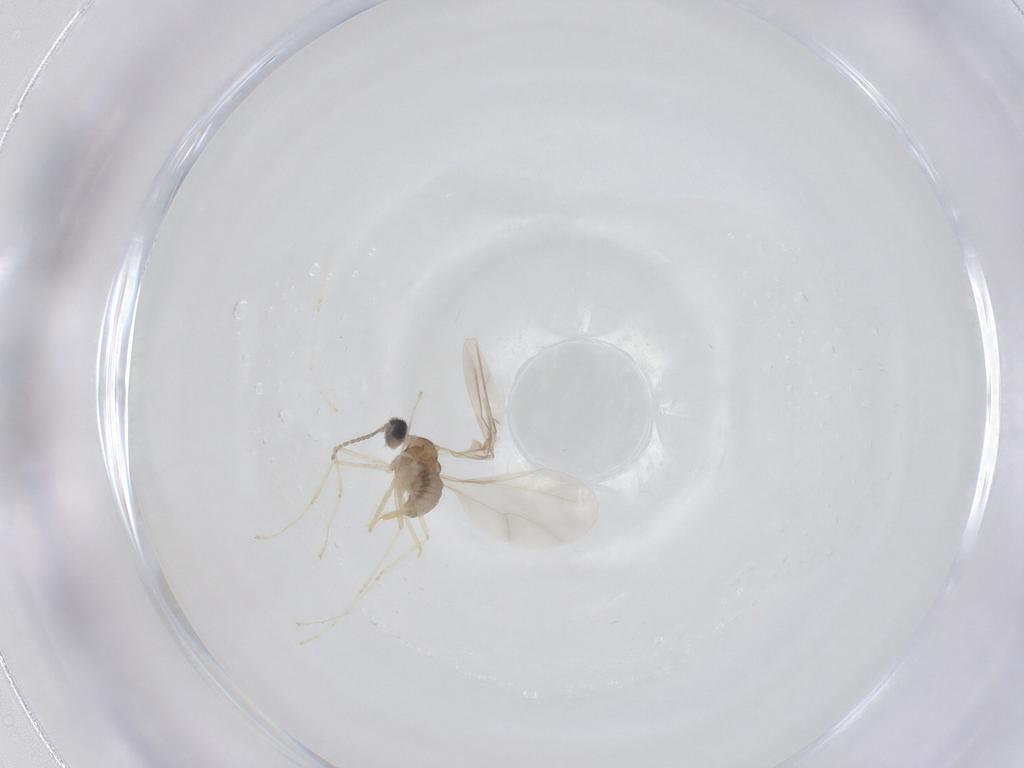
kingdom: Animalia
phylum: Arthropoda
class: Insecta
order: Diptera
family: Cecidomyiidae
